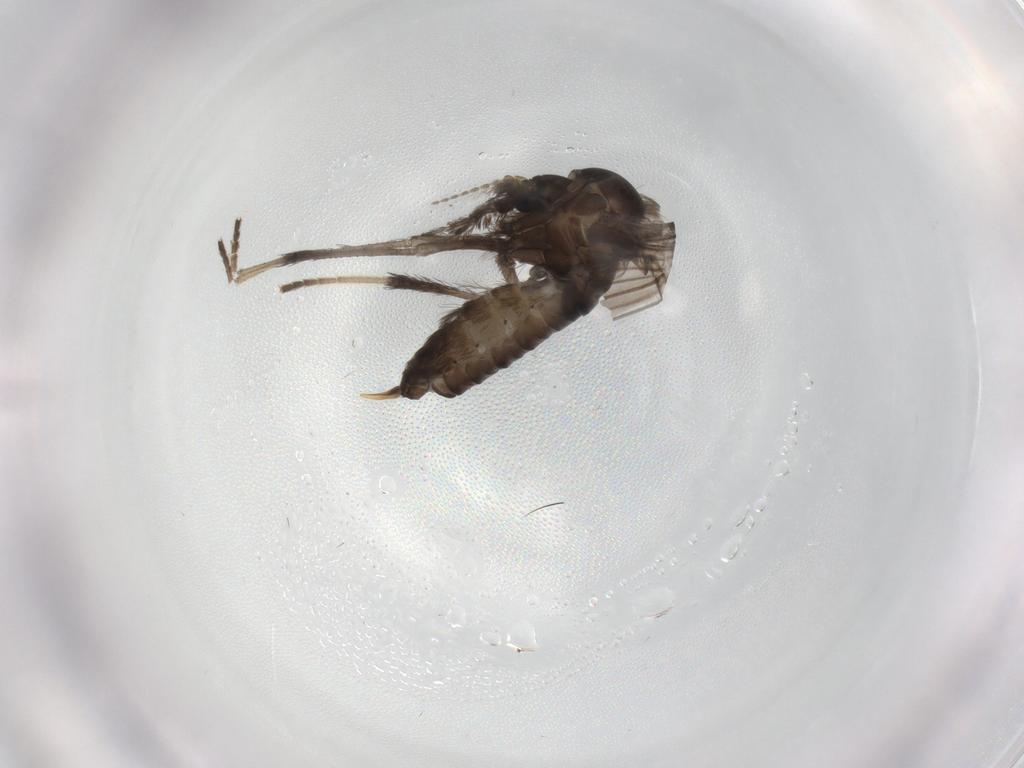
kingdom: Animalia
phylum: Arthropoda
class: Insecta
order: Diptera
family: Psychodidae
